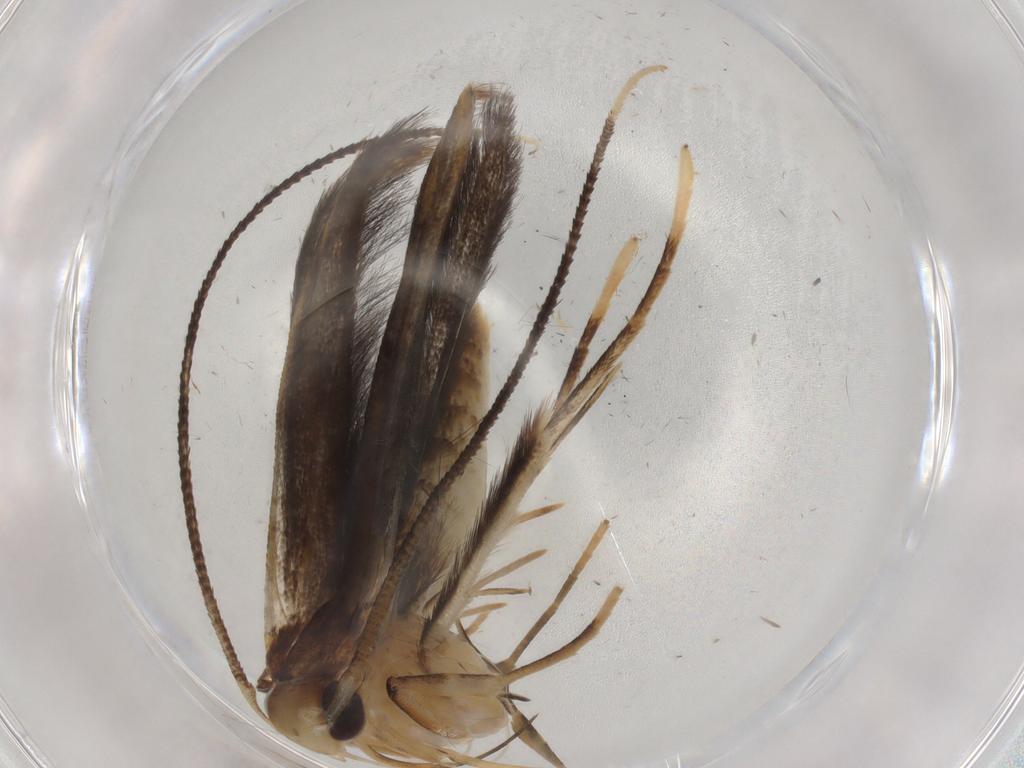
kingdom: Animalia
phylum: Arthropoda
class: Insecta
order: Lepidoptera
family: Gracillariidae
